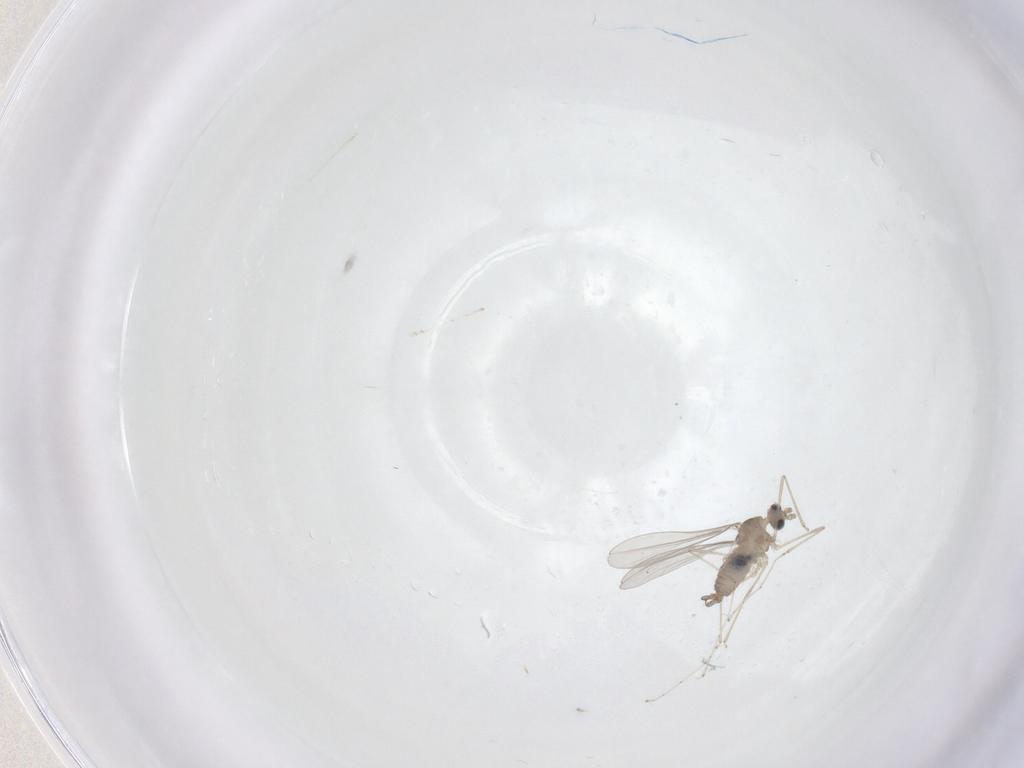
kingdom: Animalia
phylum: Arthropoda
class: Insecta
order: Diptera
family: Cecidomyiidae
